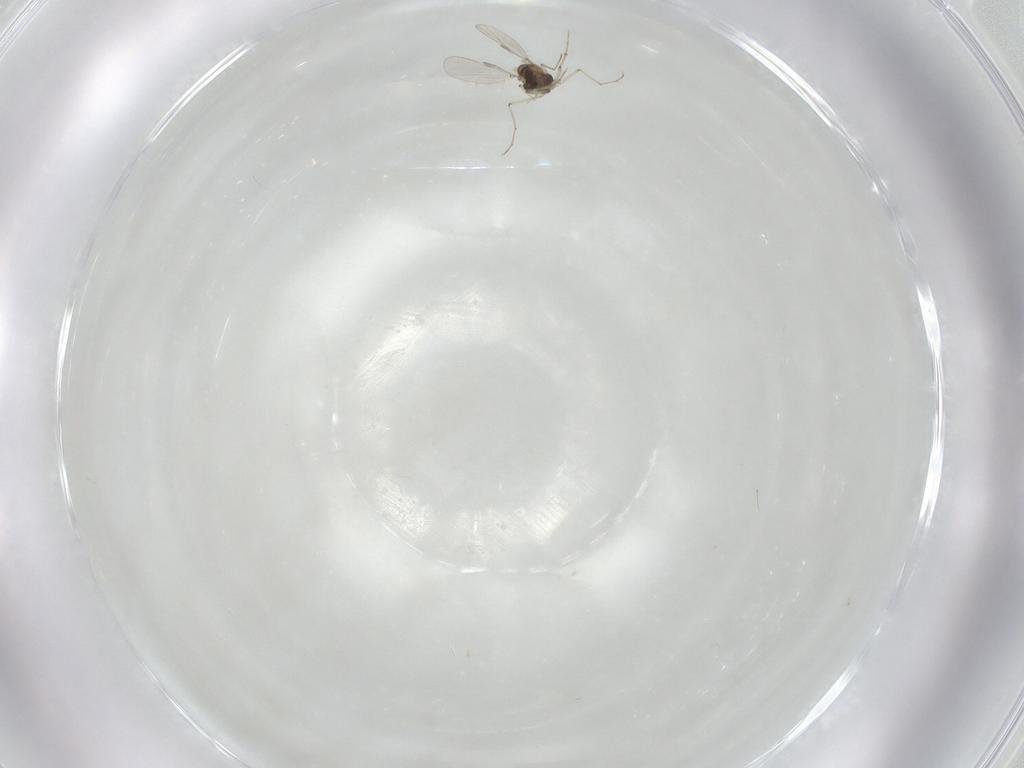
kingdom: Animalia
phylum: Arthropoda
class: Insecta
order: Diptera
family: Chironomidae
